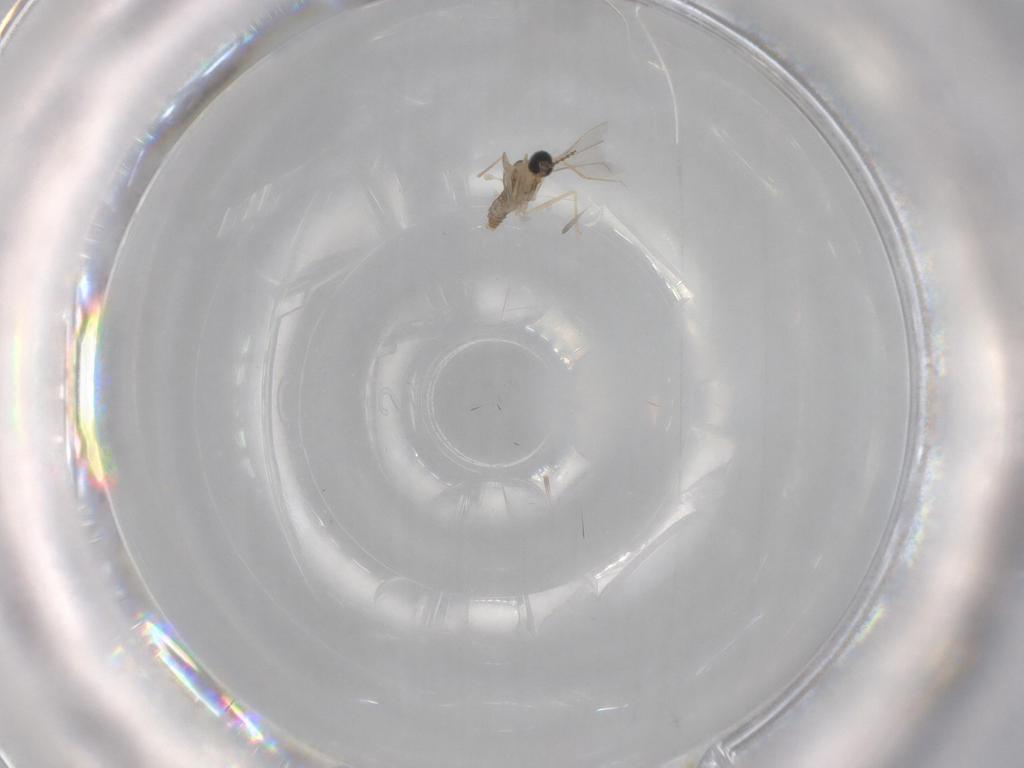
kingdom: Animalia
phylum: Arthropoda
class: Insecta
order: Diptera
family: Cecidomyiidae
